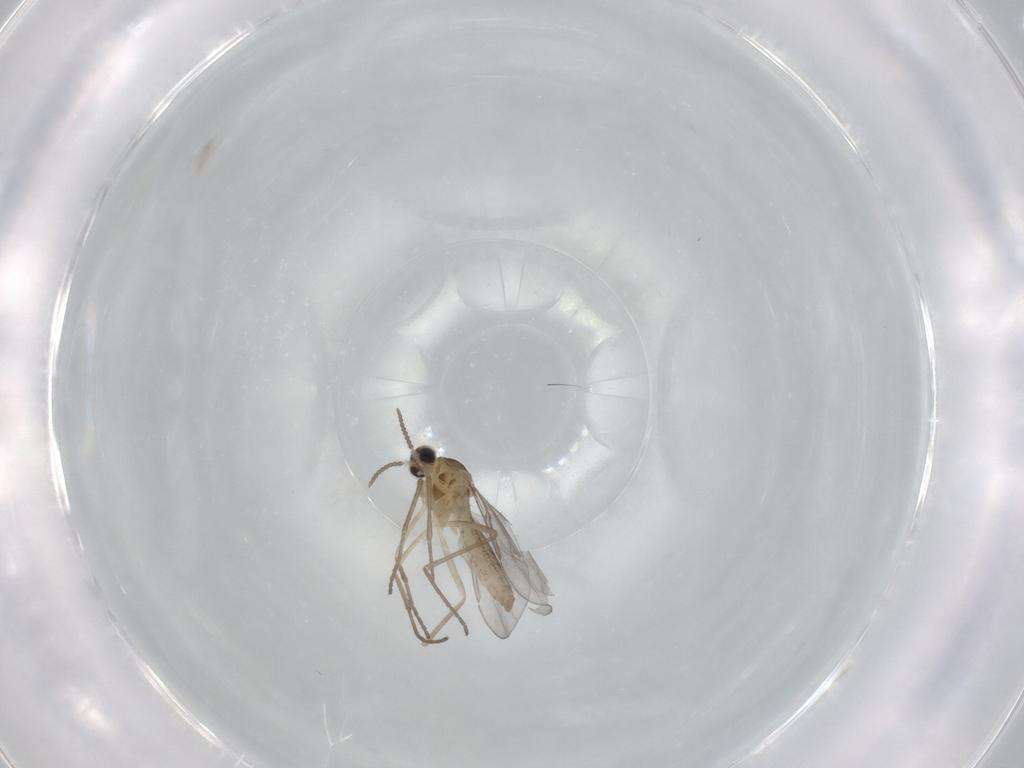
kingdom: Animalia
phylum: Arthropoda
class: Insecta
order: Diptera
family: Cecidomyiidae
